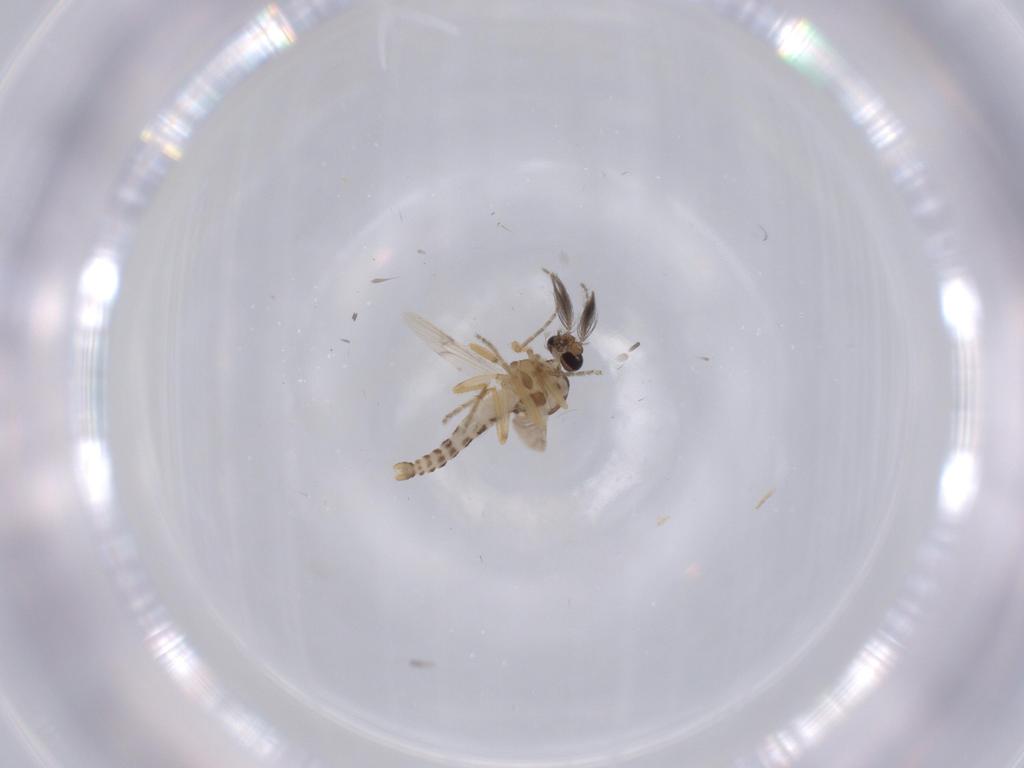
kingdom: Animalia
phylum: Arthropoda
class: Insecta
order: Diptera
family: Ceratopogonidae
